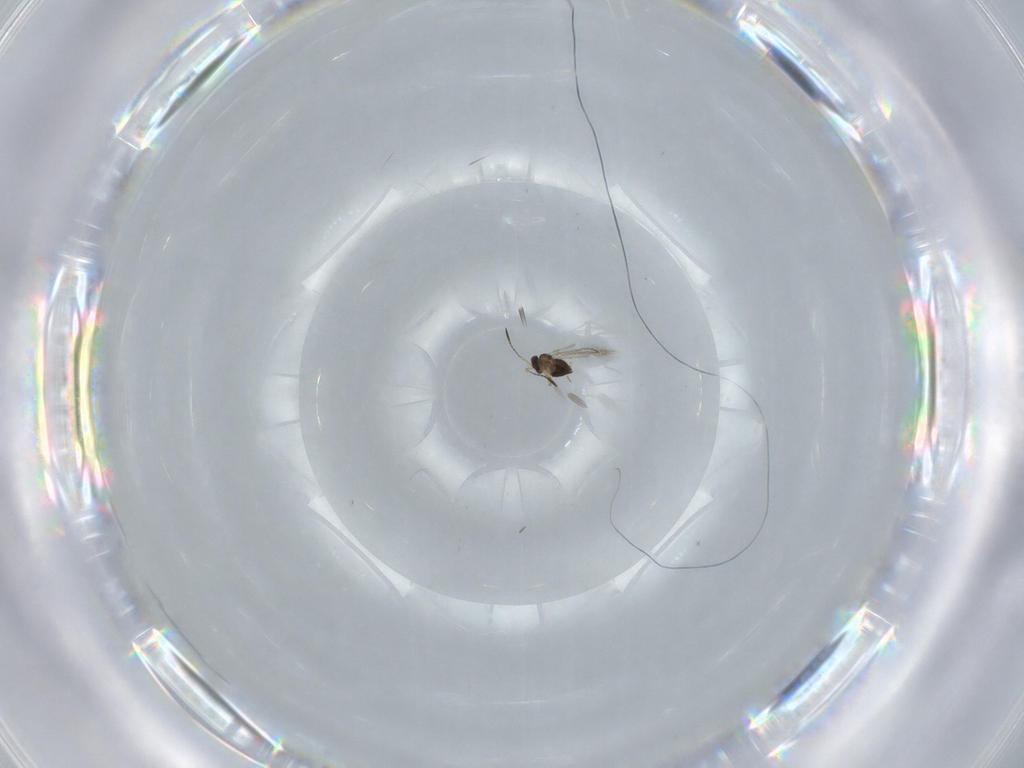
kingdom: Animalia
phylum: Arthropoda
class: Insecta
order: Hymenoptera
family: Mymaridae
